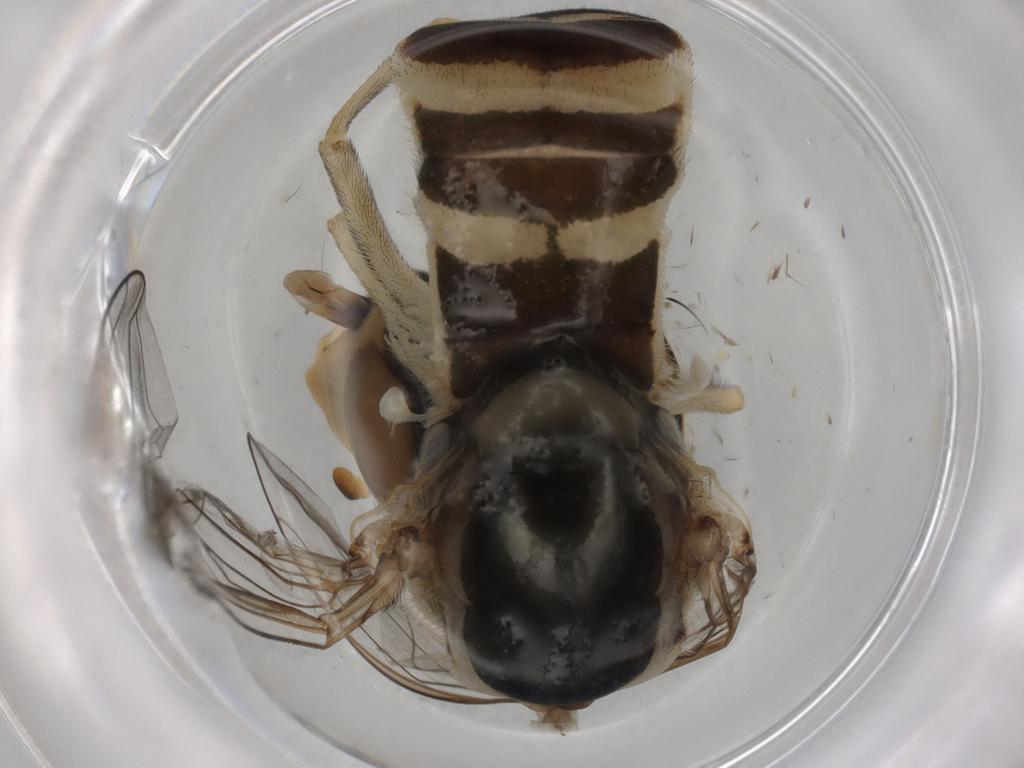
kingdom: Animalia
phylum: Arthropoda
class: Insecta
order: Diptera
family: Syrphidae
